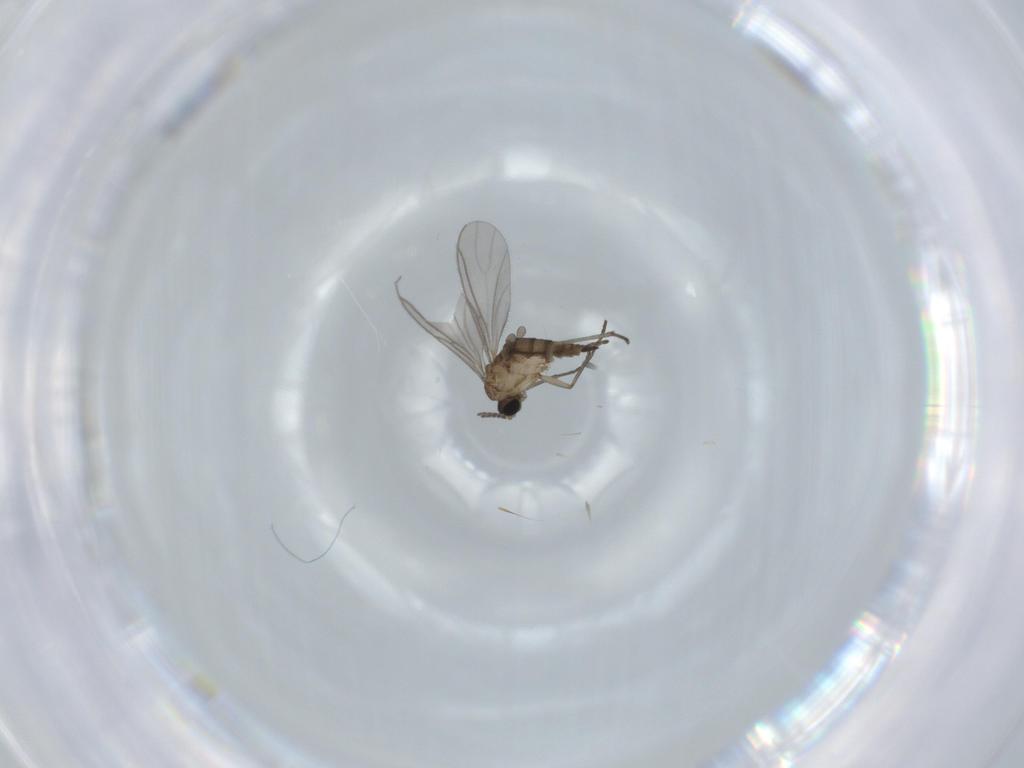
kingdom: Animalia
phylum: Arthropoda
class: Insecta
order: Diptera
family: Sciaridae
